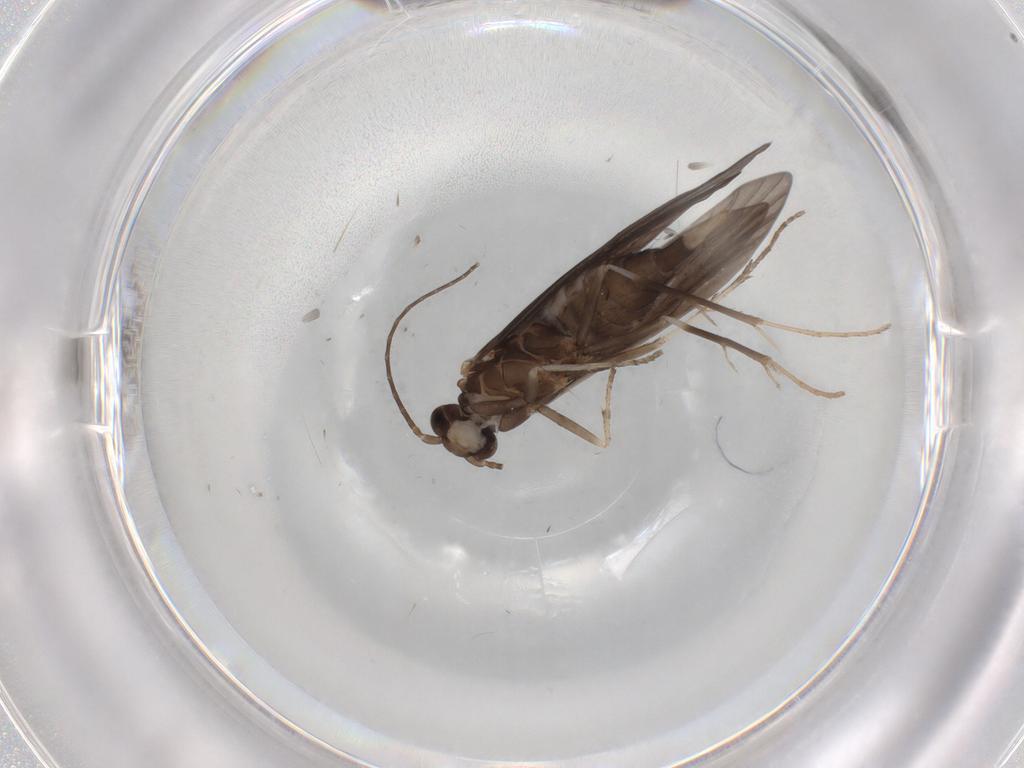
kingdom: Animalia
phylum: Arthropoda
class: Insecta
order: Trichoptera
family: Xiphocentronidae
